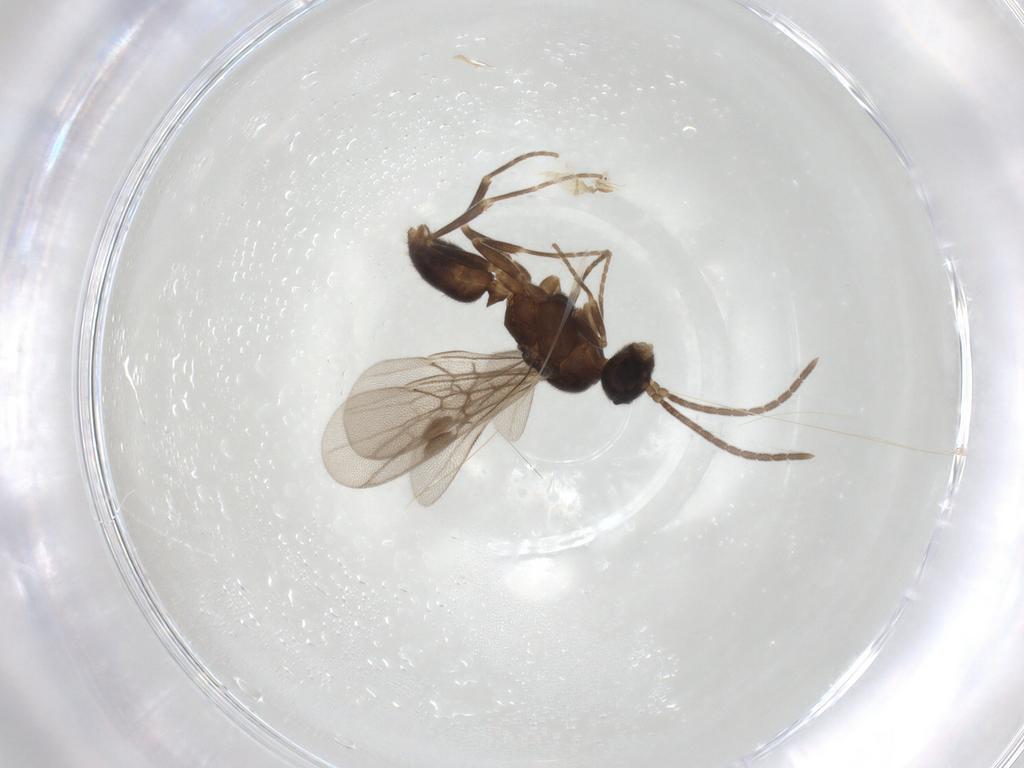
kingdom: Animalia
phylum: Arthropoda
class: Insecta
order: Hymenoptera
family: Formicidae
